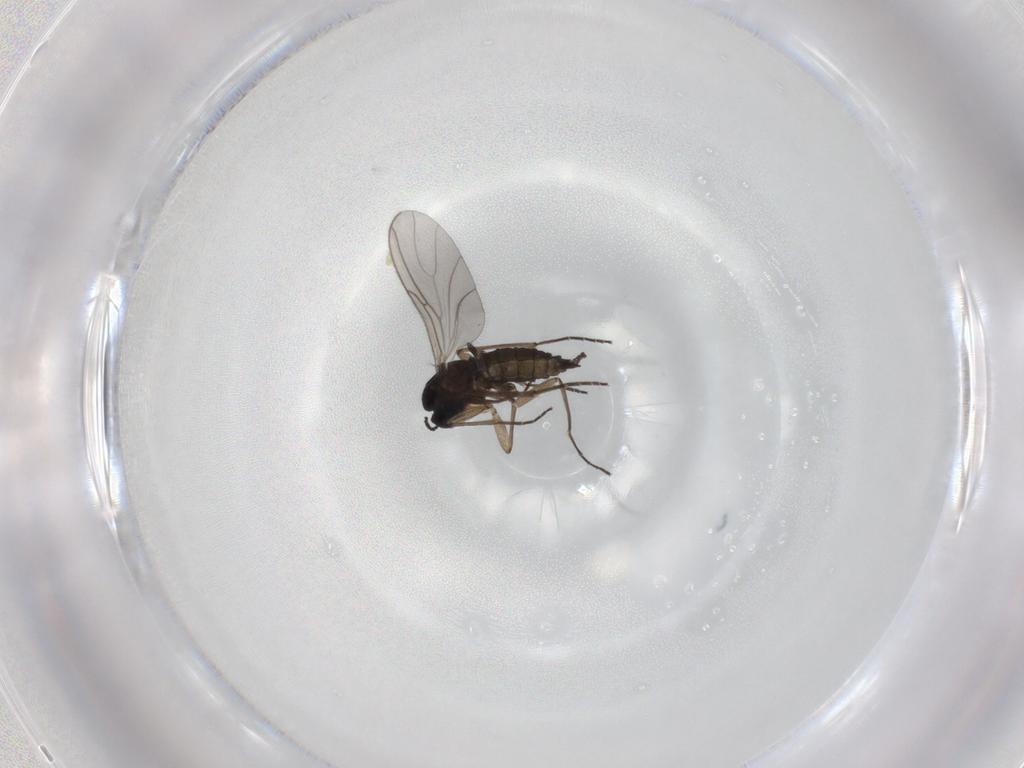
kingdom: Animalia
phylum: Arthropoda
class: Insecta
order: Diptera
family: Sciaridae
